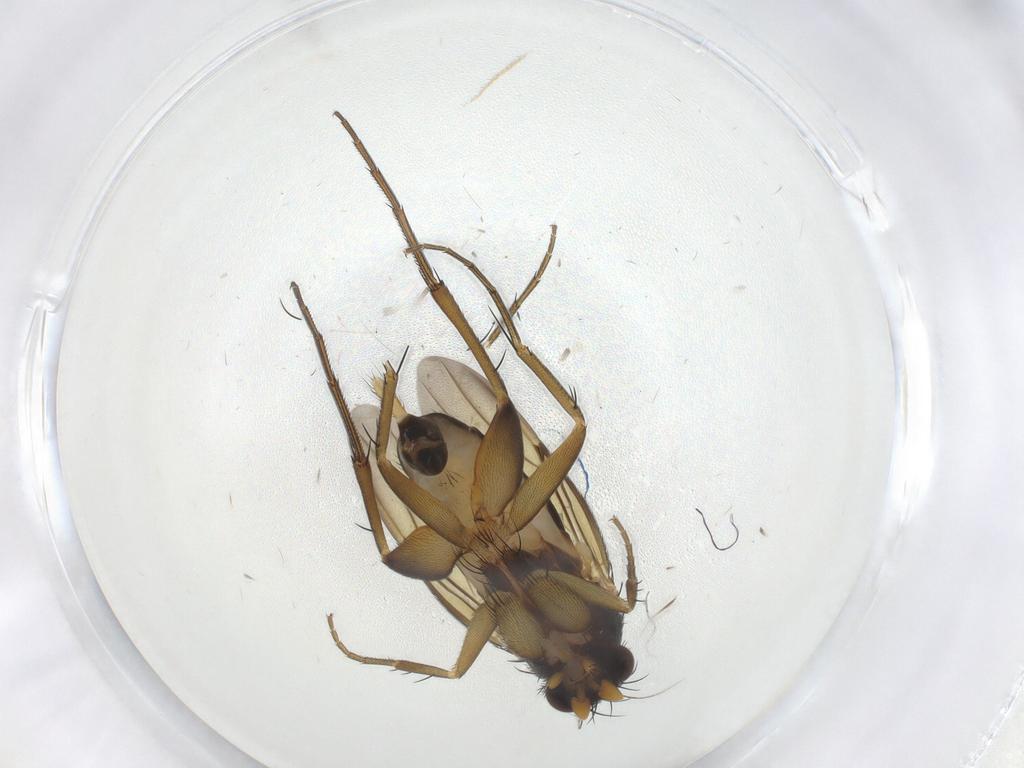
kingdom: Animalia
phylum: Arthropoda
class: Insecta
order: Diptera
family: Phoridae
